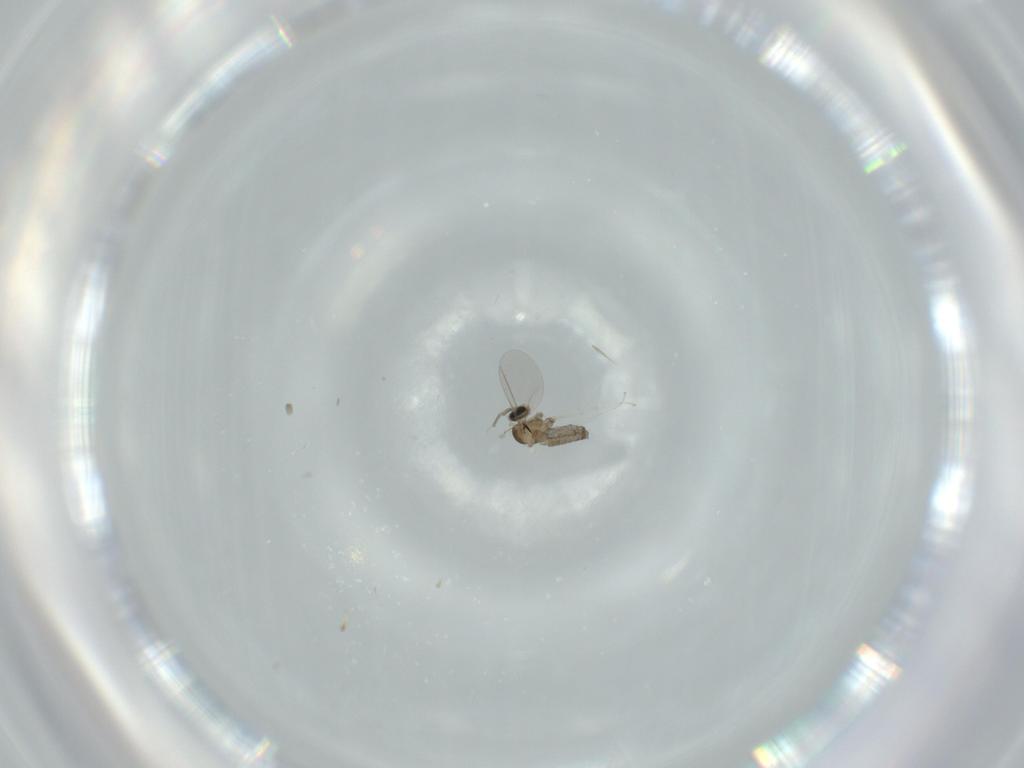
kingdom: Animalia
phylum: Arthropoda
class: Insecta
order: Diptera
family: Cecidomyiidae
